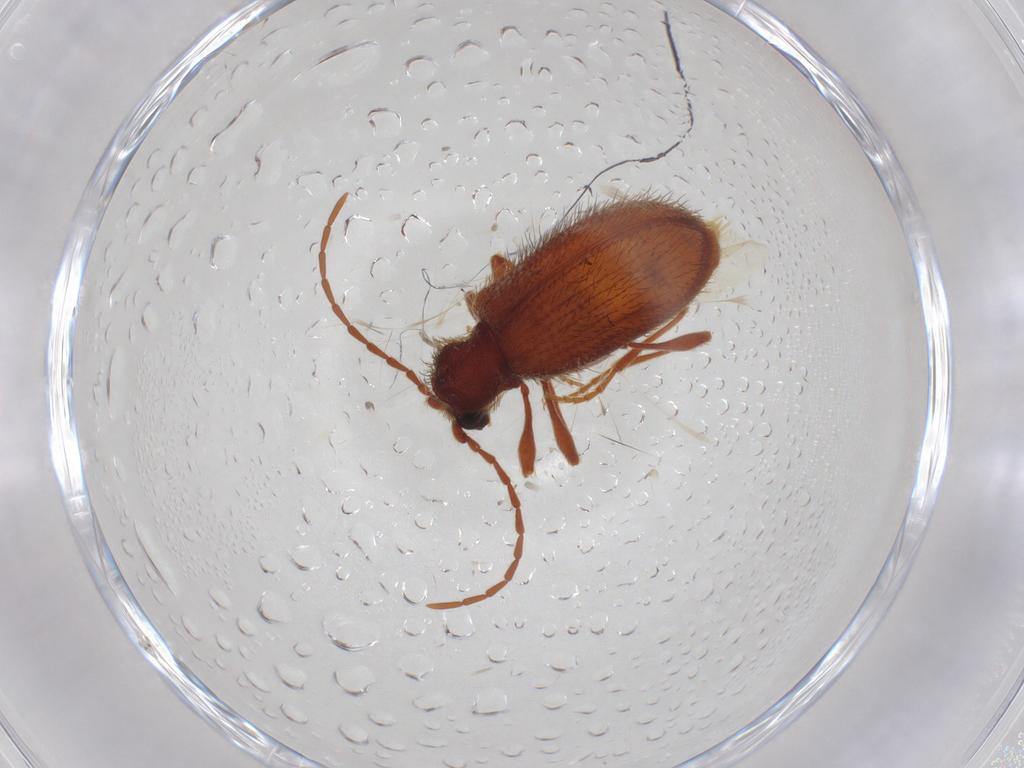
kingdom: Animalia
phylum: Arthropoda
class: Insecta
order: Coleoptera
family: Ptinidae
